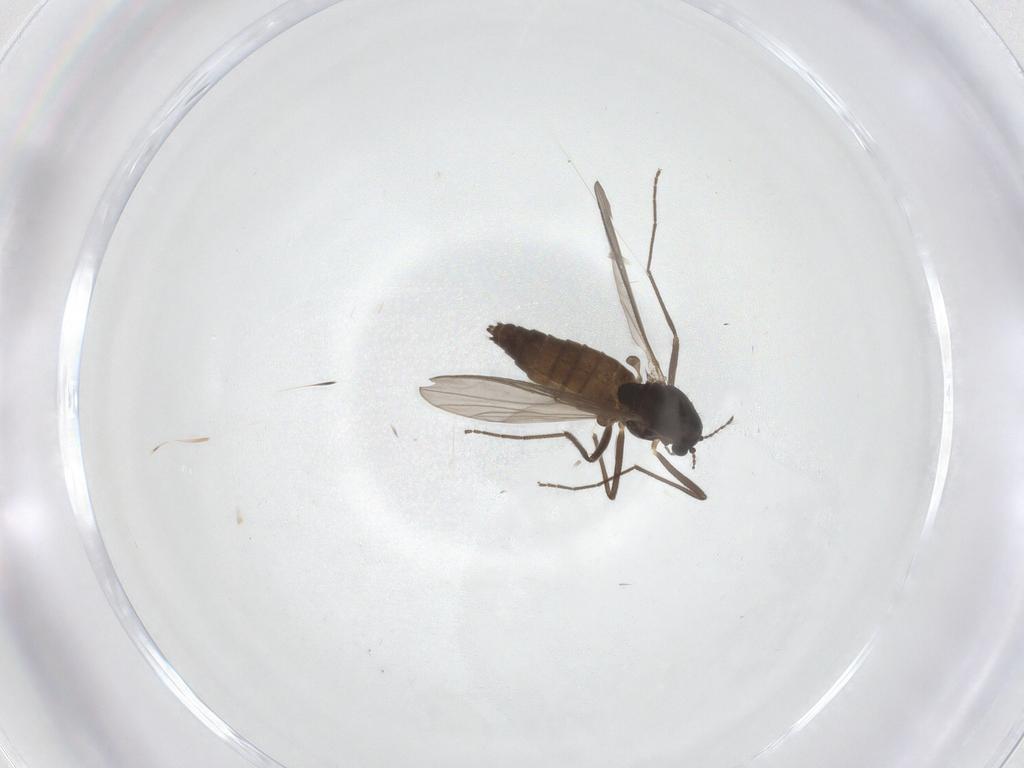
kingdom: Animalia
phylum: Arthropoda
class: Insecta
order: Diptera
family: Chironomidae
